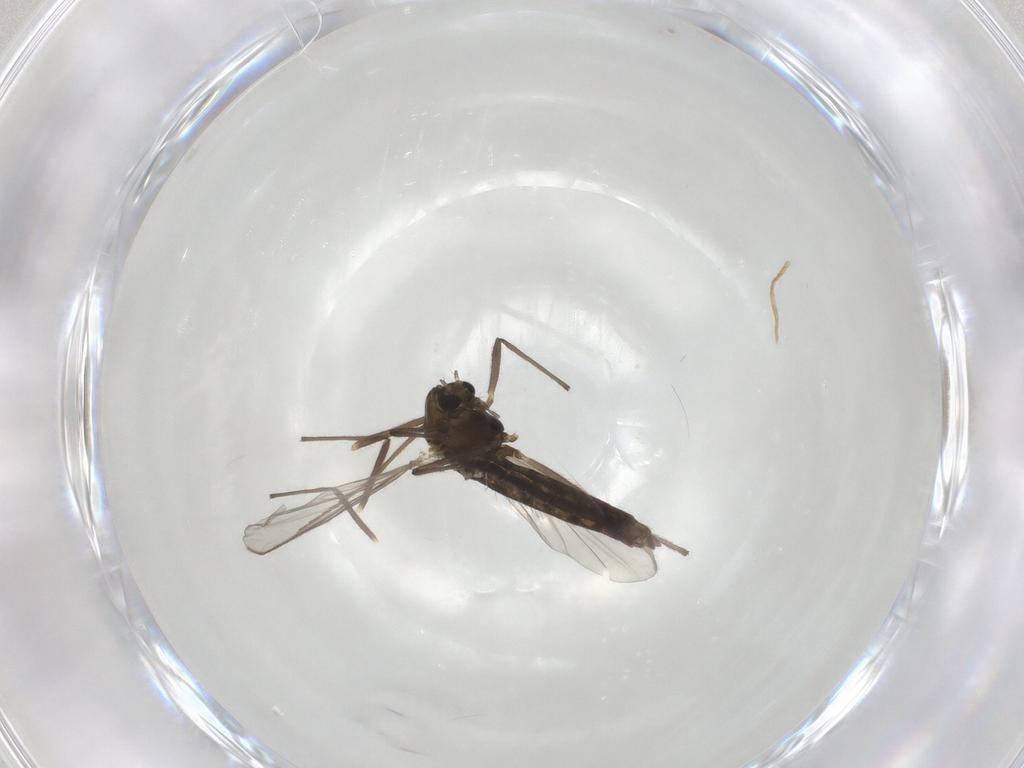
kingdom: Animalia
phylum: Arthropoda
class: Insecta
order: Diptera
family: Chironomidae
